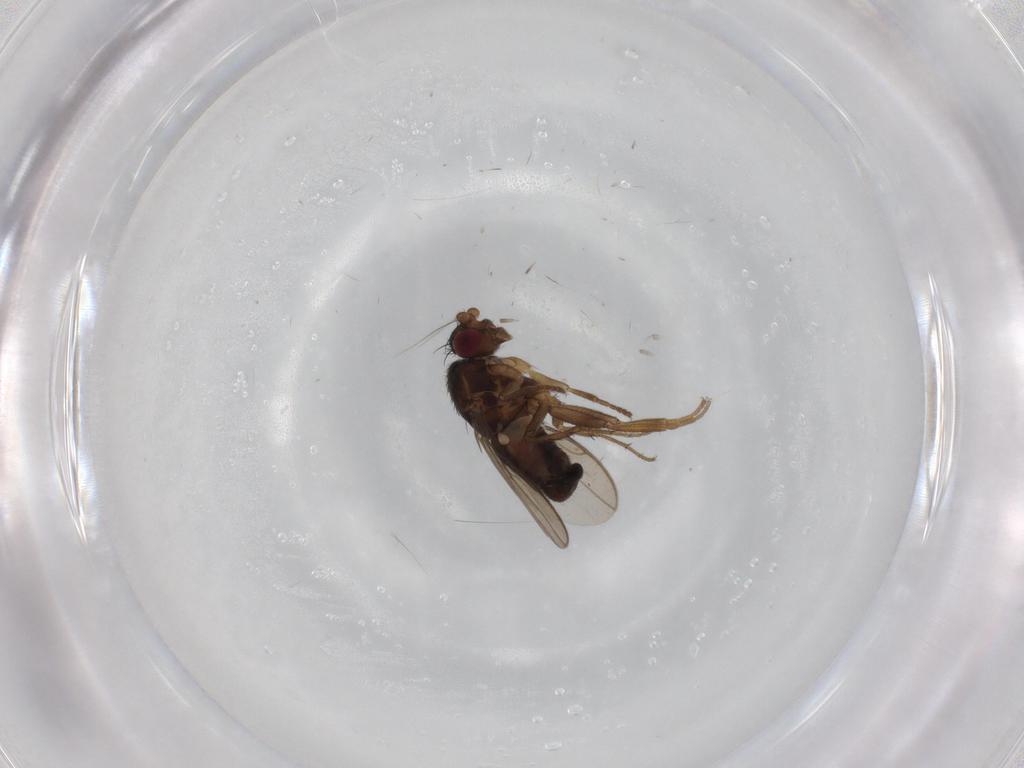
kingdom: Animalia
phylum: Arthropoda
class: Insecta
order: Diptera
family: Sphaeroceridae
